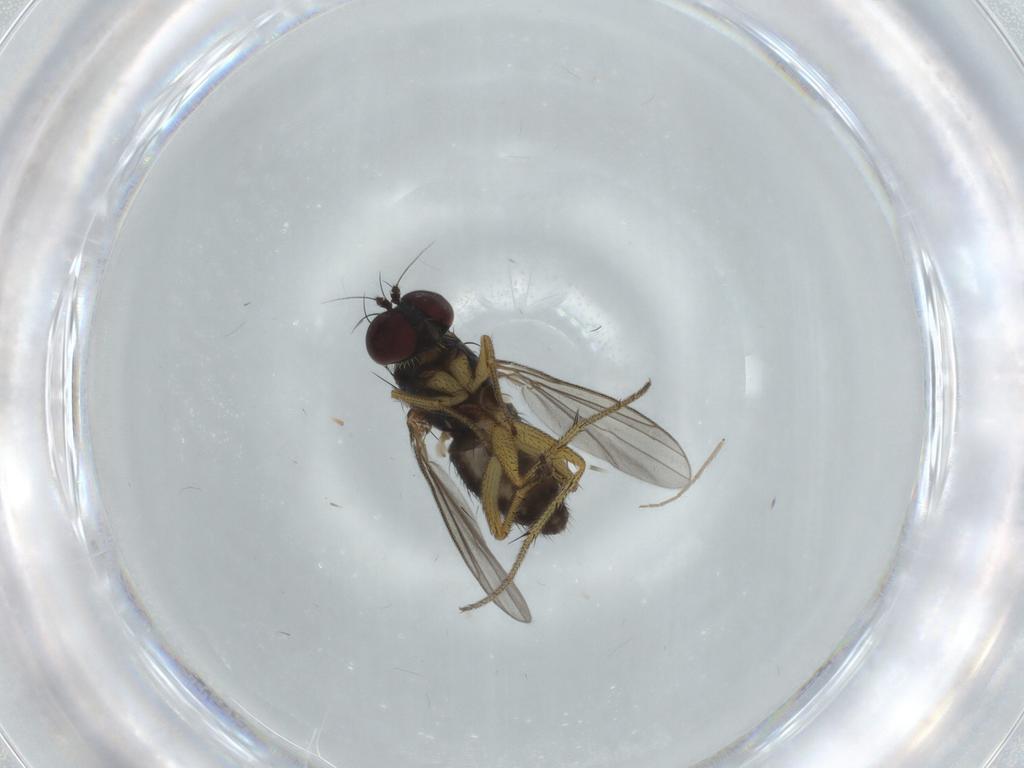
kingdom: Animalia
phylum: Arthropoda
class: Insecta
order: Diptera
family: Dolichopodidae
